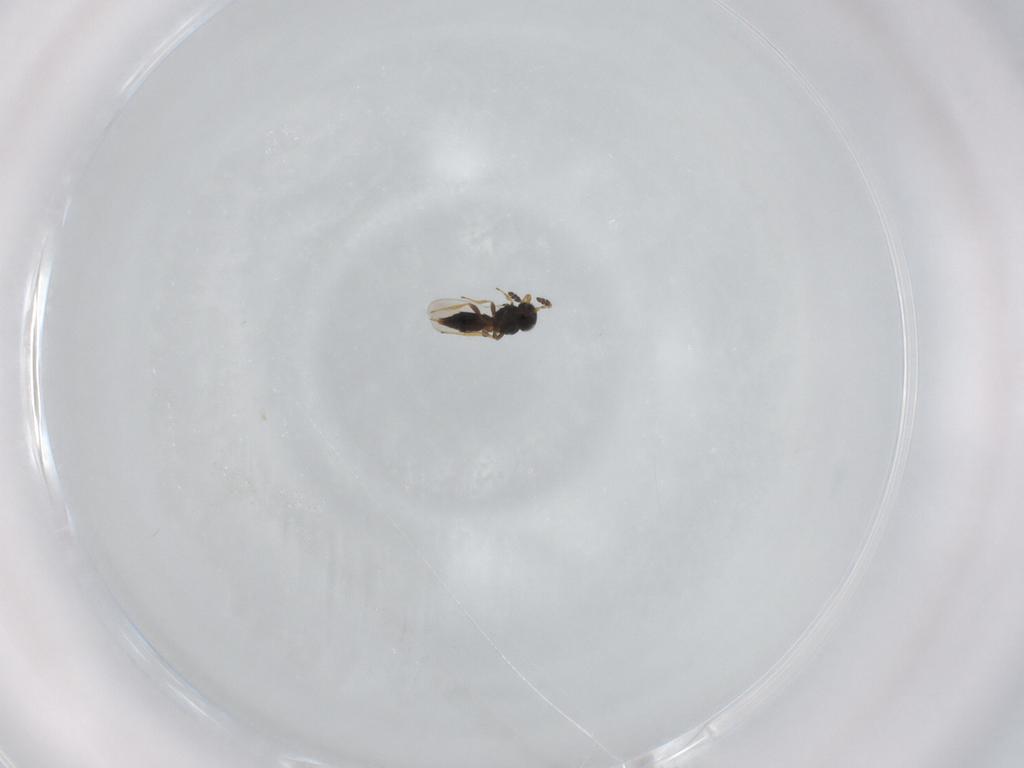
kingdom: Animalia
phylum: Arthropoda
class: Insecta
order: Hymenoptera
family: Platygastridae
